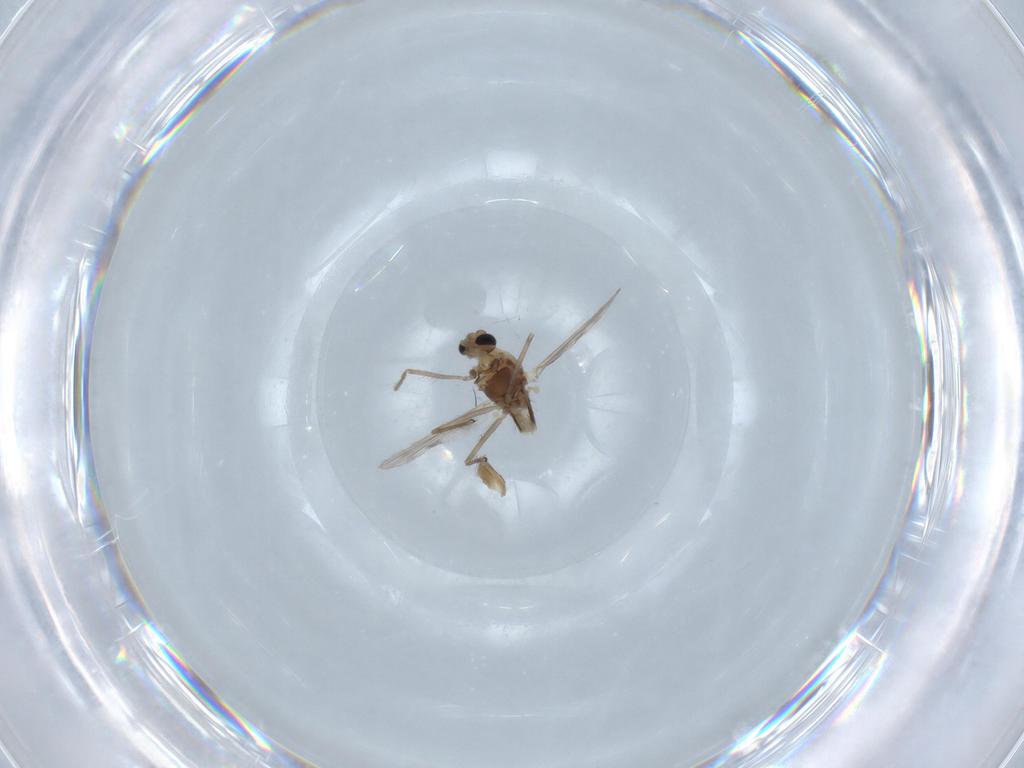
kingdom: Animalia
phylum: Arthropoda
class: Insecta
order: Diptera
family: Chironomidae
